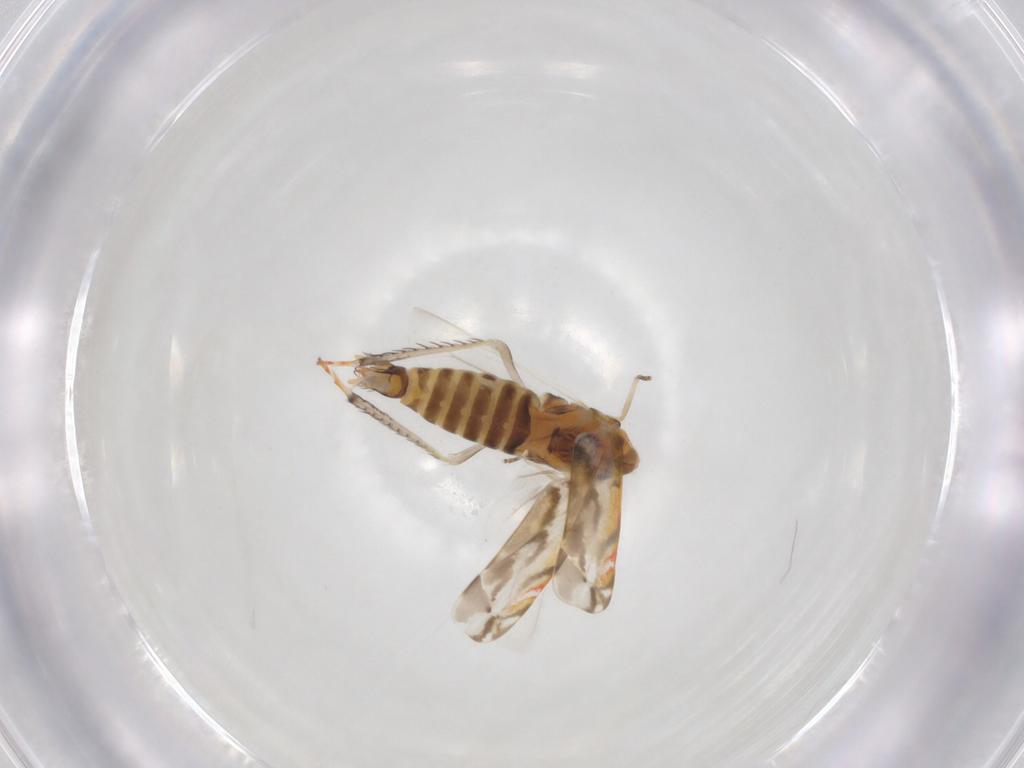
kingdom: Animalia
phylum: Arthropoda
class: Insecta
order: Hemiptera
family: Cicadellidae
